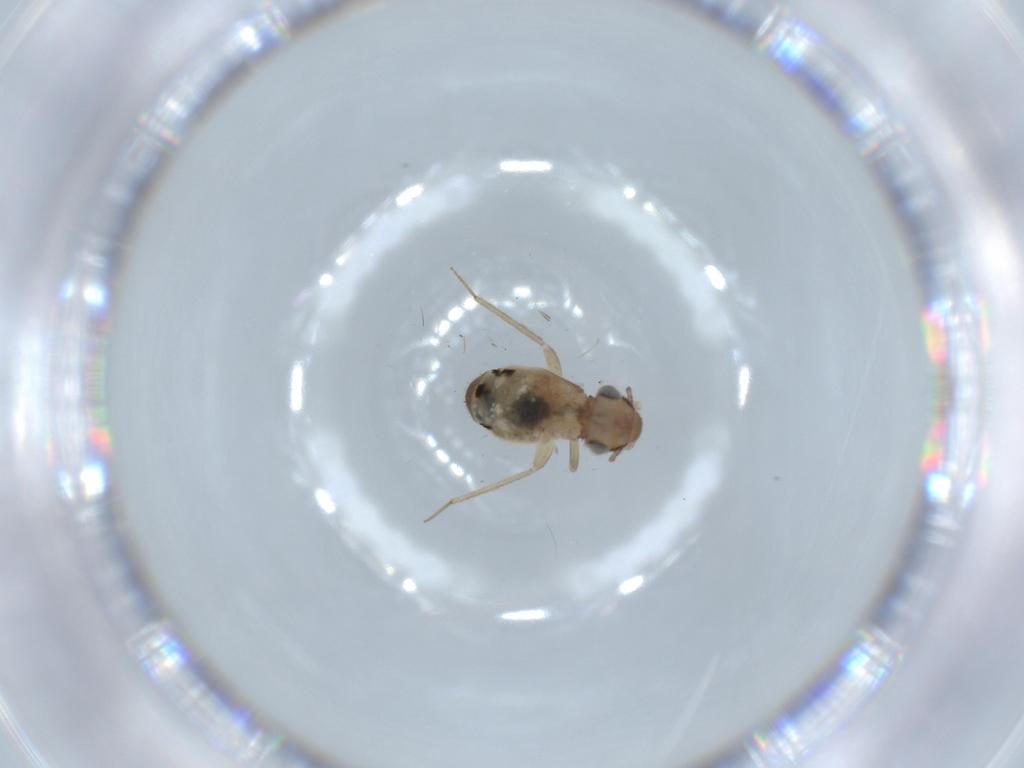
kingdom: Animalia
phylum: Arthropoda
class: Insecta
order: Psocodea
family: Lepidopsocidae
